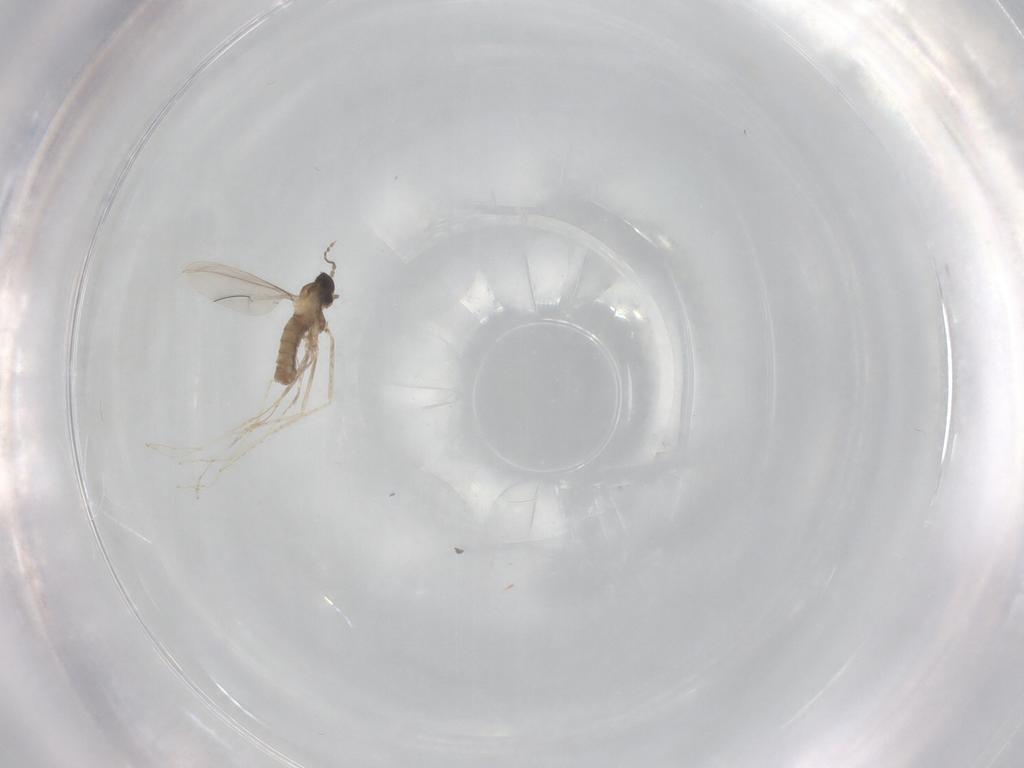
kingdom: Animalia
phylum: Arthropoda
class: Insecta
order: Diptera
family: Cecidomyiidae
